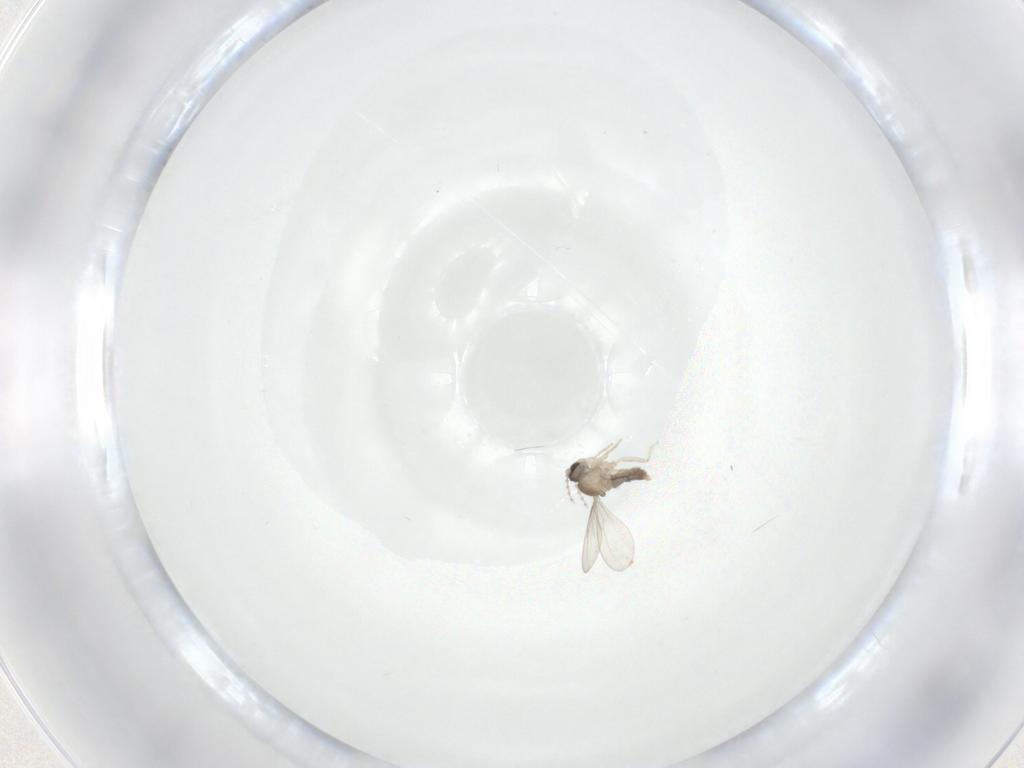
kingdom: Animalia
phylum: Arthropoda
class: Insecta
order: Diptera
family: Cecidomyiidae
